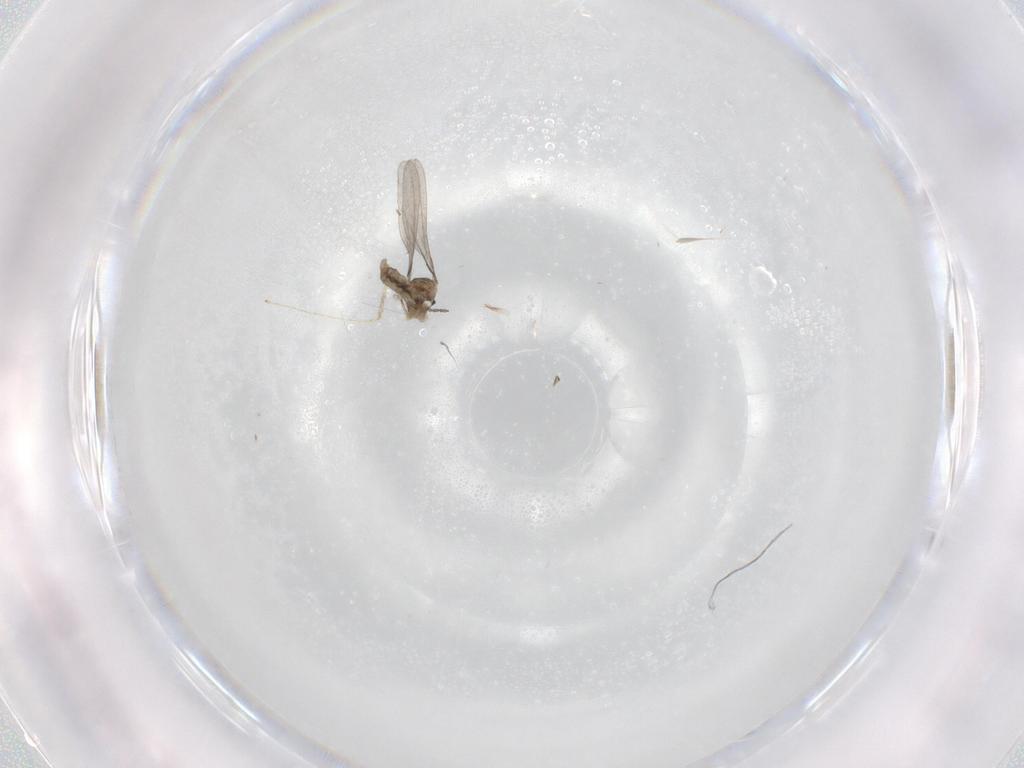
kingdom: Animalia
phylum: Arthropoda
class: Insecta
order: Diptera
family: Lauxaniidae
